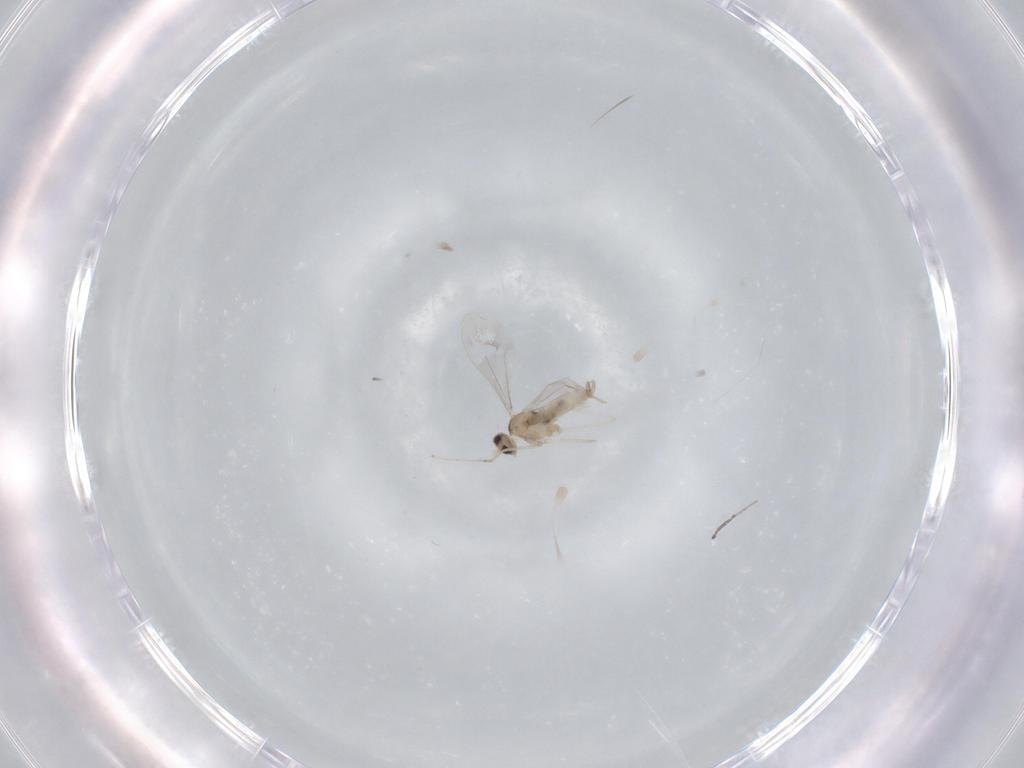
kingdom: Animalia
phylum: Arthropoda
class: Insecta
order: Diptera
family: Cecidomyiidae
